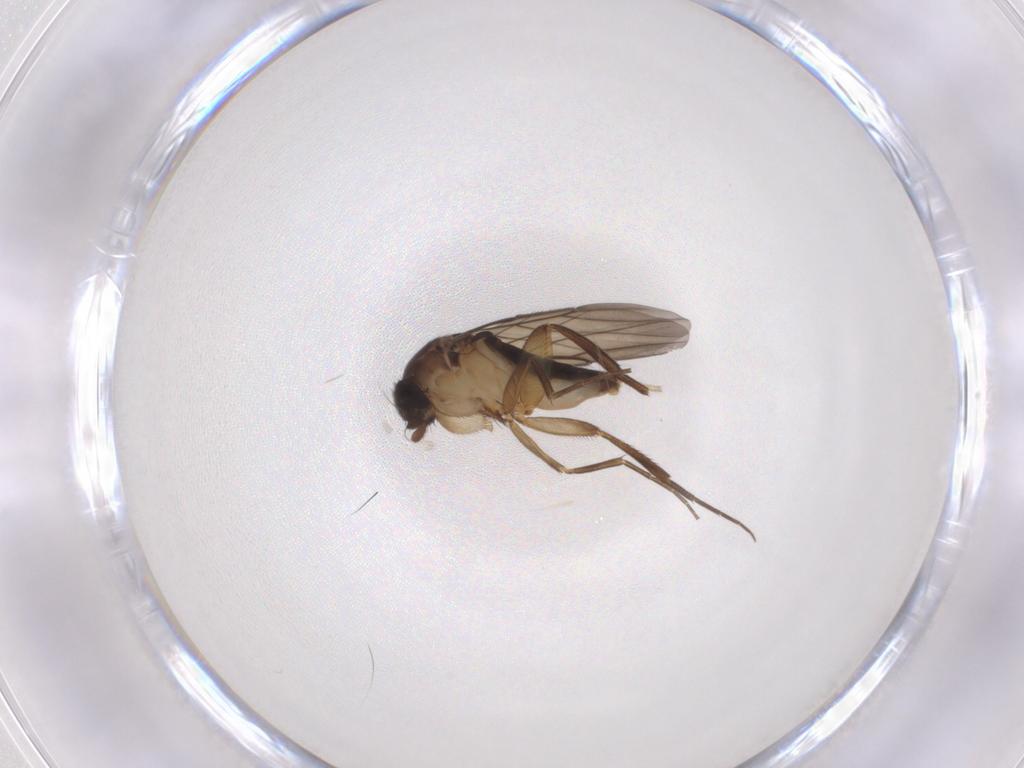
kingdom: Animalia
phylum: Arthropoda
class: Insecta
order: Diptera
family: Phoridae
